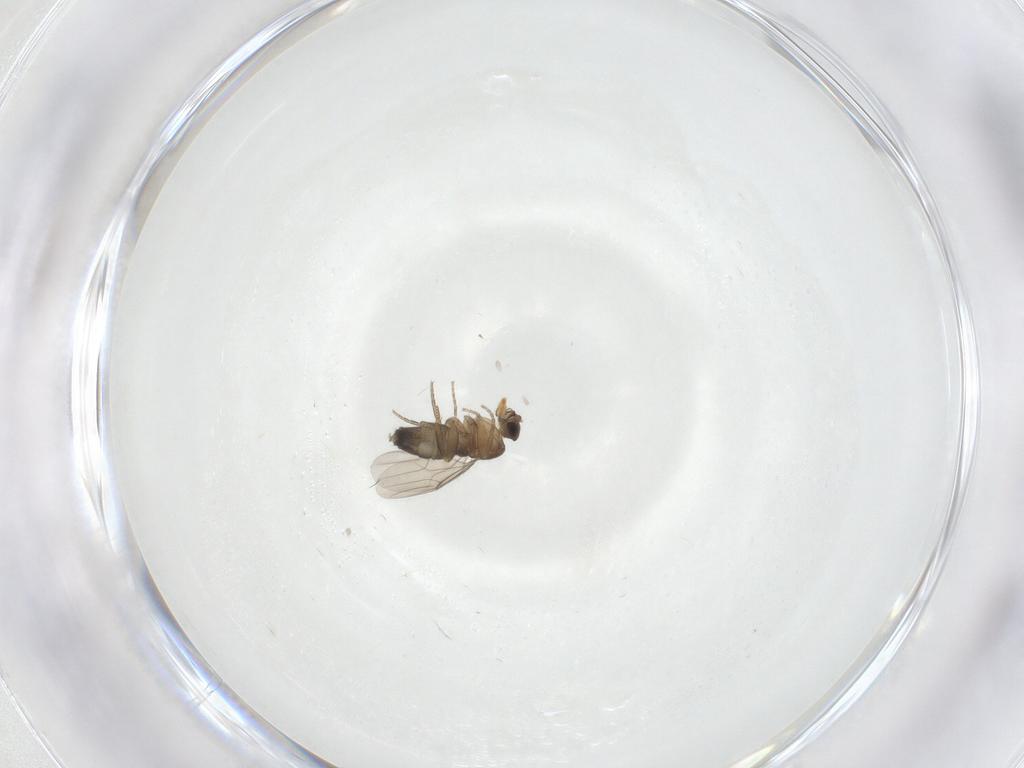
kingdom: Animalia
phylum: Arthropoda
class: Insecta
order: Diptera
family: Phoridae
